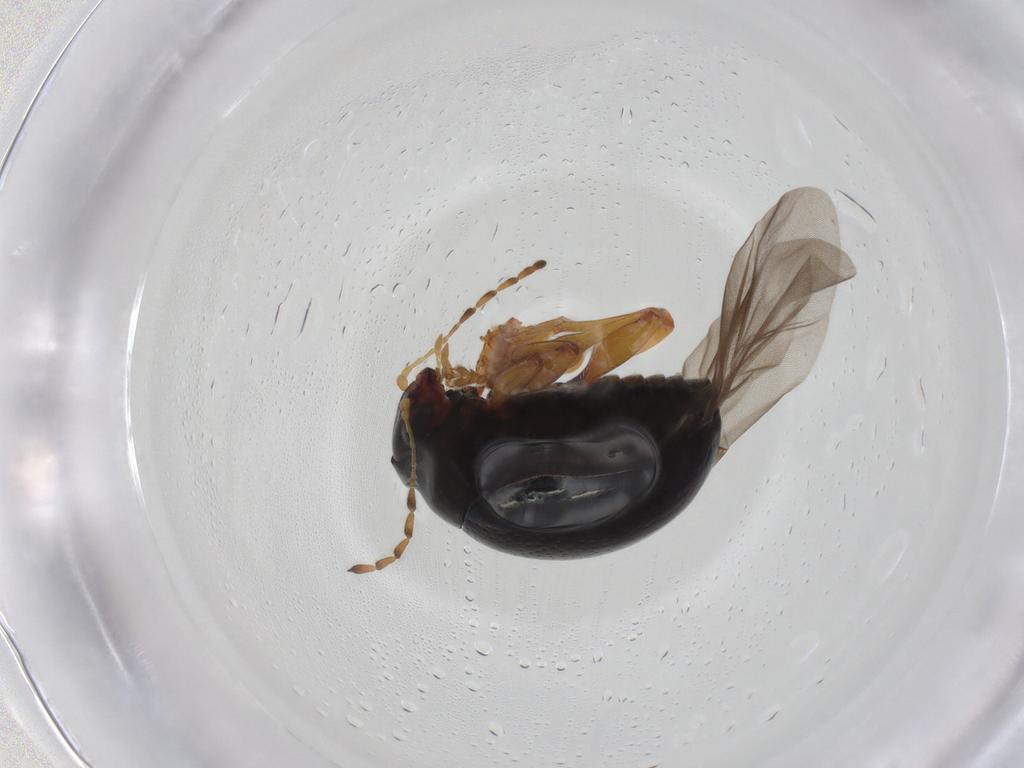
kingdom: Animalia
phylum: Arthropoda
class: Insecta
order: Coleoptera
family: Chrysomelidae
